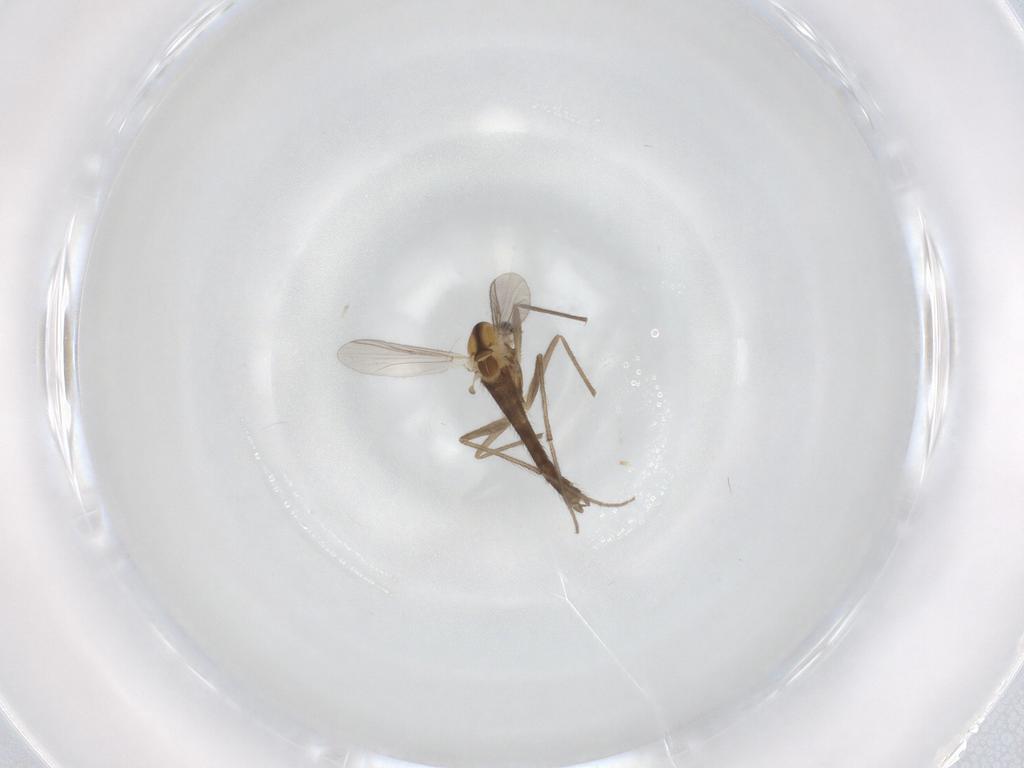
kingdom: Animalia
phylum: Arthropoda
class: Insecta
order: Diptera
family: Chironomidae
